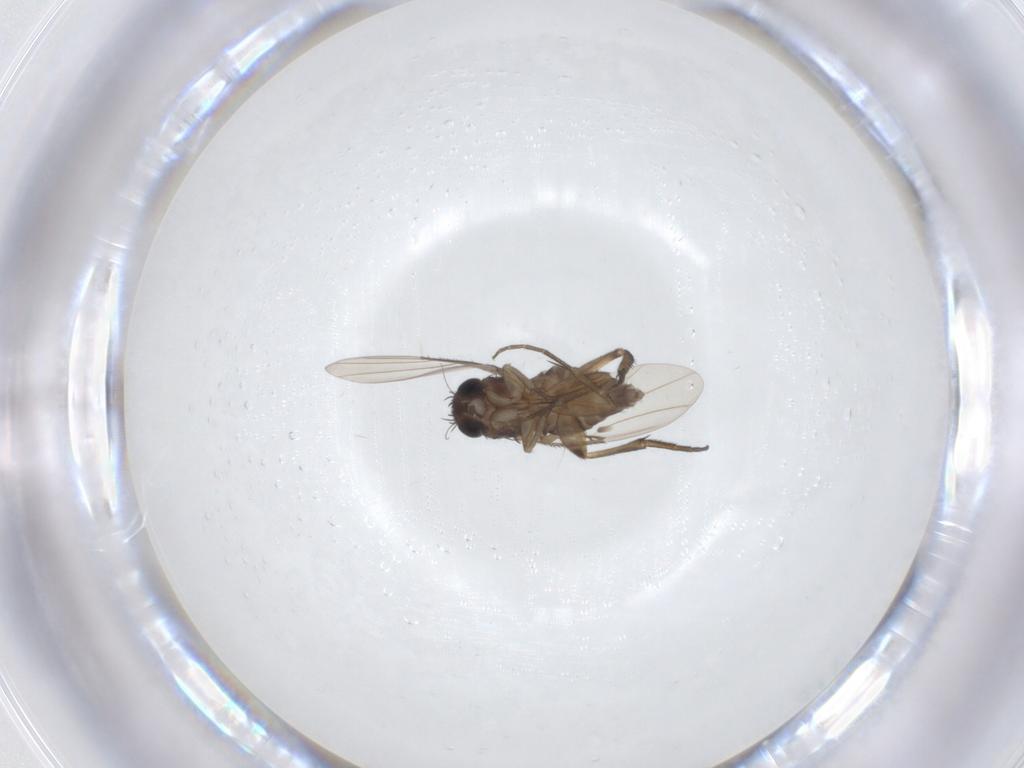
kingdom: Animalia
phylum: Arthropoda
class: Insecta
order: Diptera
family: Phoridae
